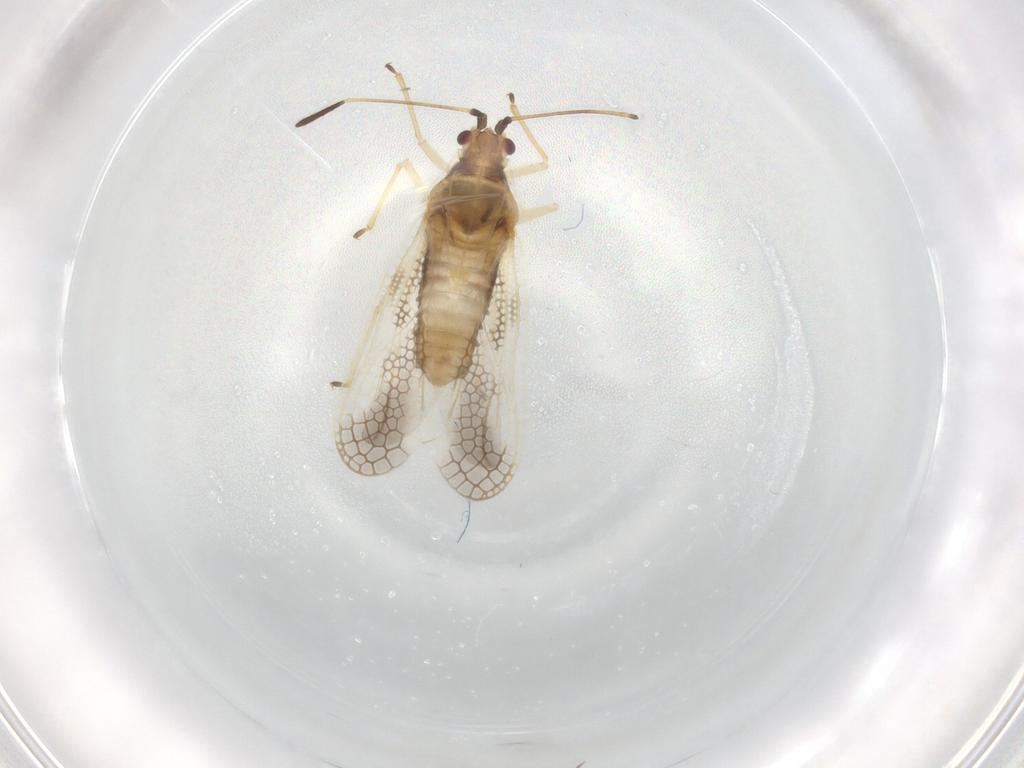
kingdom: Animalia
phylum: Arthropoda
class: Insecta
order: Hemiptera
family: Tingidae
